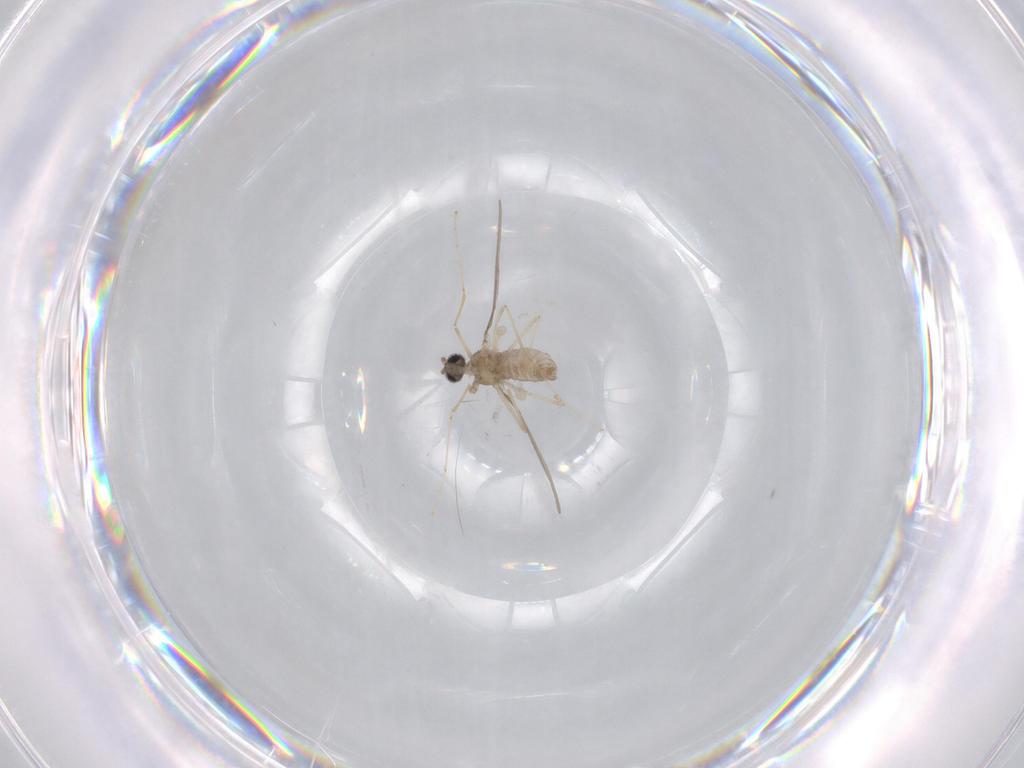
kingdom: Animalia
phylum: Arthropoda
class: Insecta
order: Diptera
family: Cecidomyiidae
